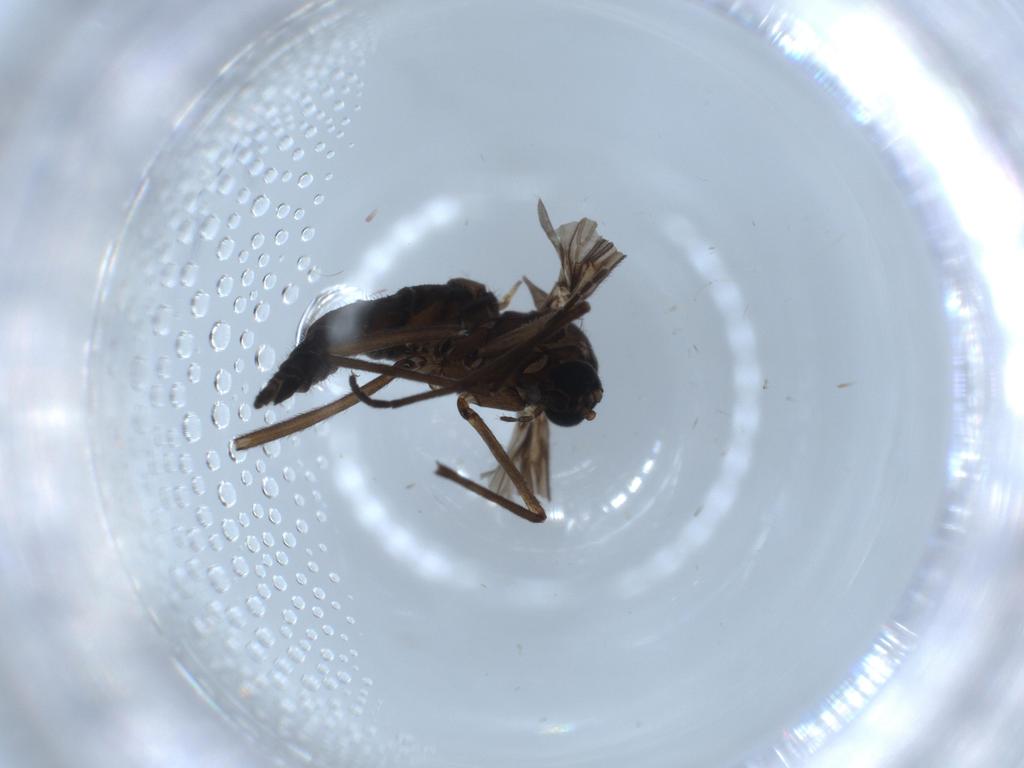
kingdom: Animalia
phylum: Arthropoda
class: Insecta
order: Diptera
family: Sciaridae
